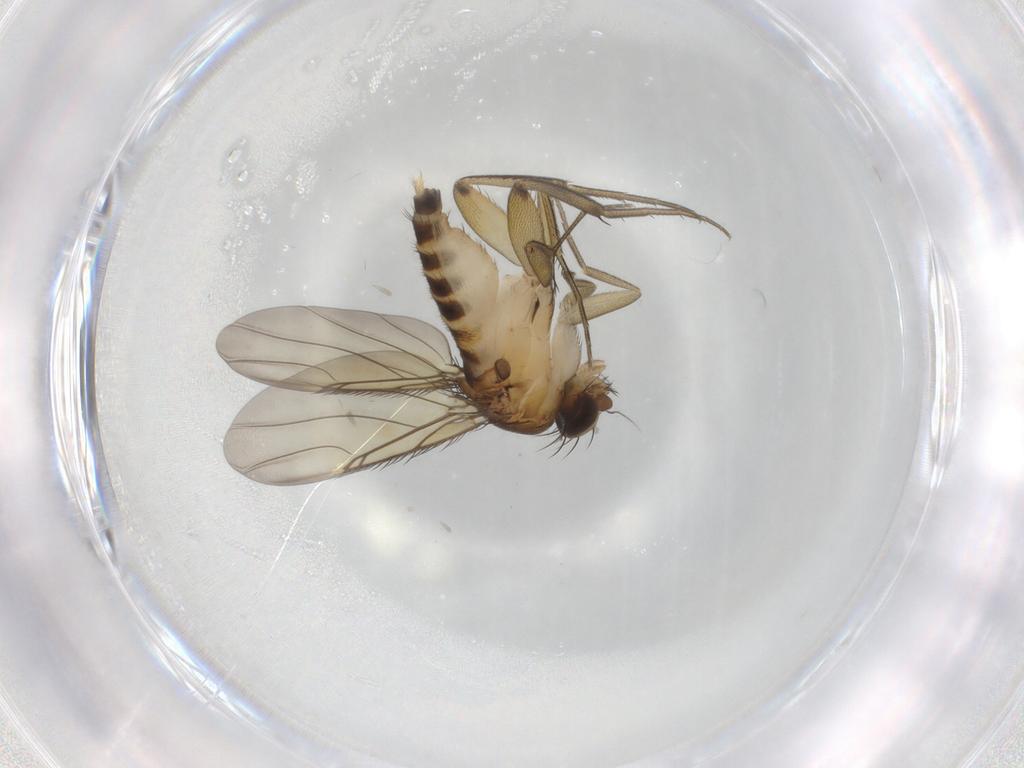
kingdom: Animalia
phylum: Arthropoda
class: Insecta
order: Diptera
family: Phoridae
